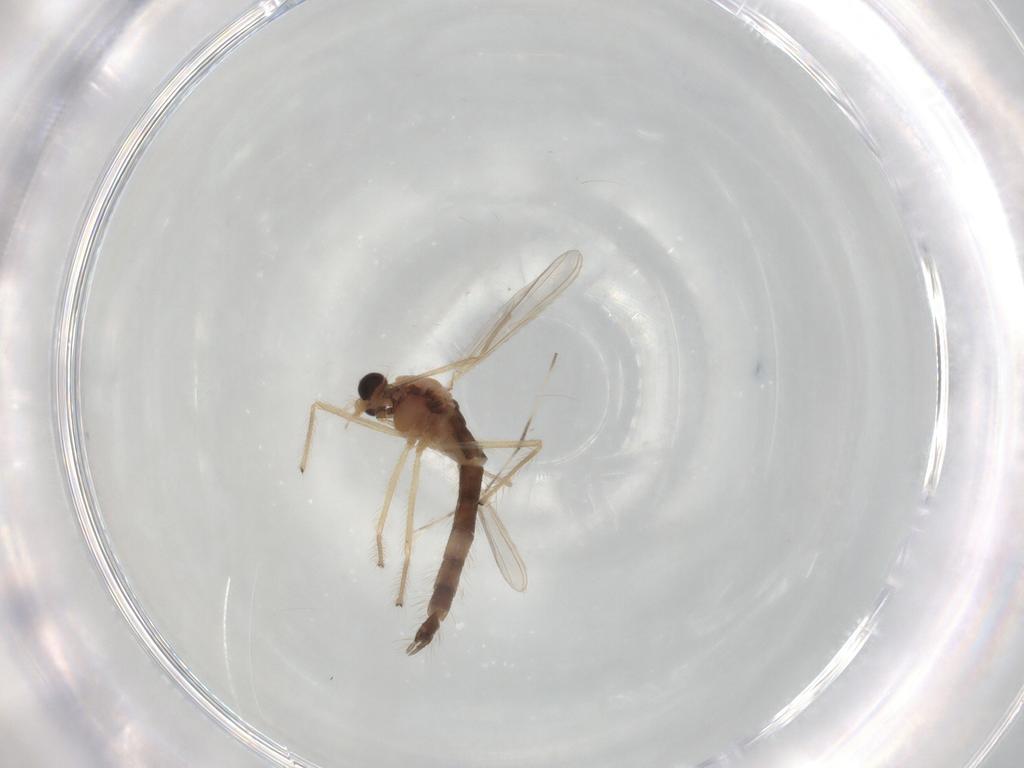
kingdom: Animalia
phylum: Arthropoda
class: Insecta
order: Diptera
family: Chironomidae
